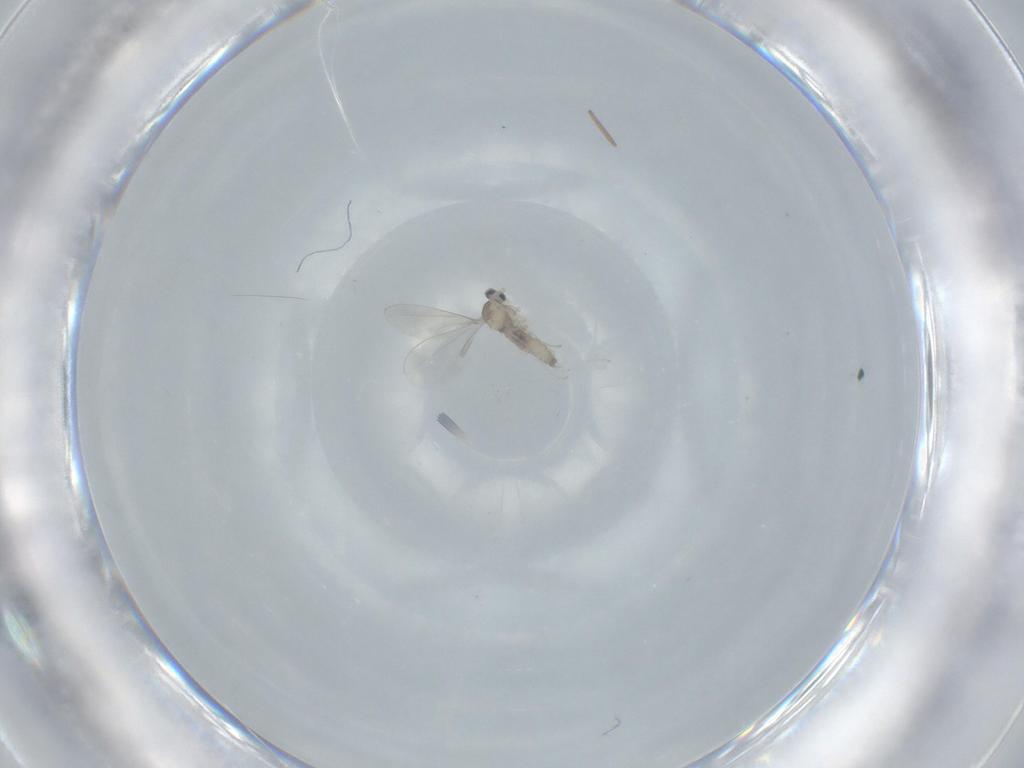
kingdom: Animalia
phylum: Arthropoda
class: Insecta
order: Diptera
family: Cecidomyiidae
